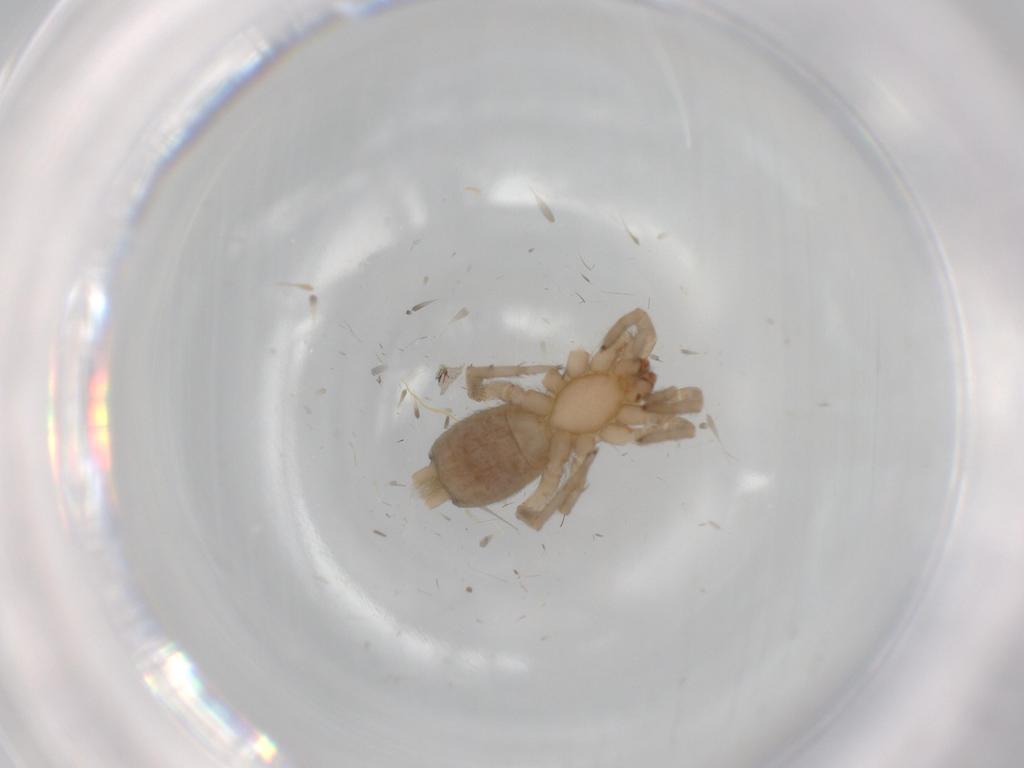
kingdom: Animalia
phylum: Arthropoda
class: Arachnida
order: Araneae
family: Gnaphosidae
